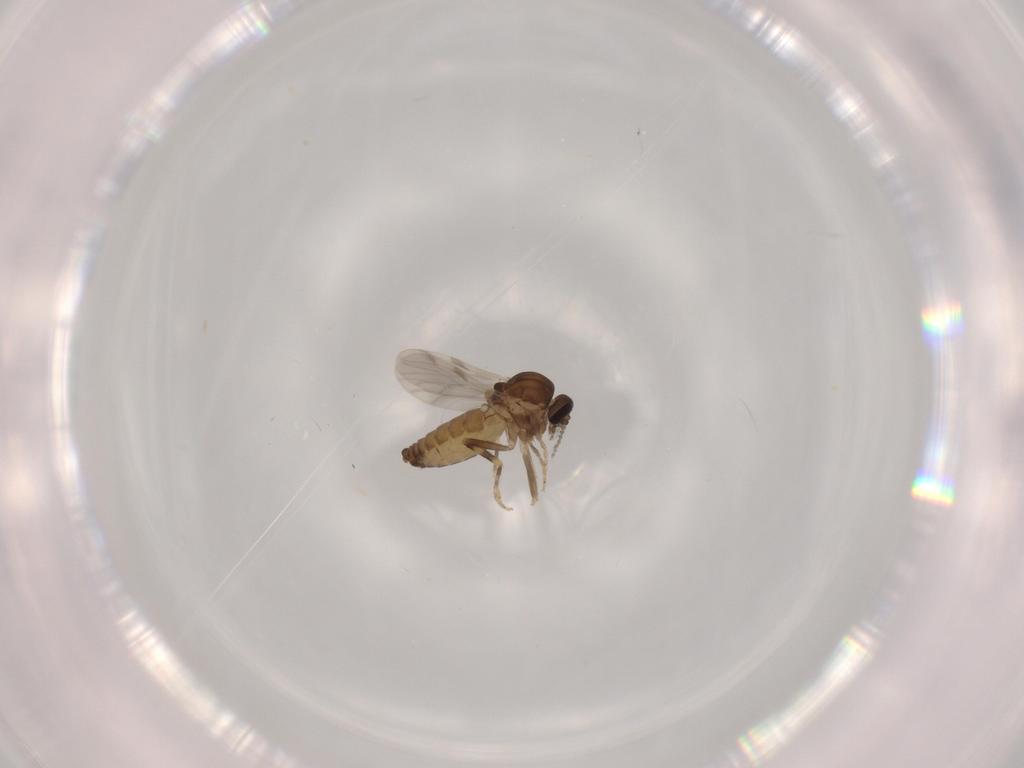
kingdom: Animalia
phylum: Arthropoda
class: Insecta
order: Diptera
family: Ceratopogonidae
